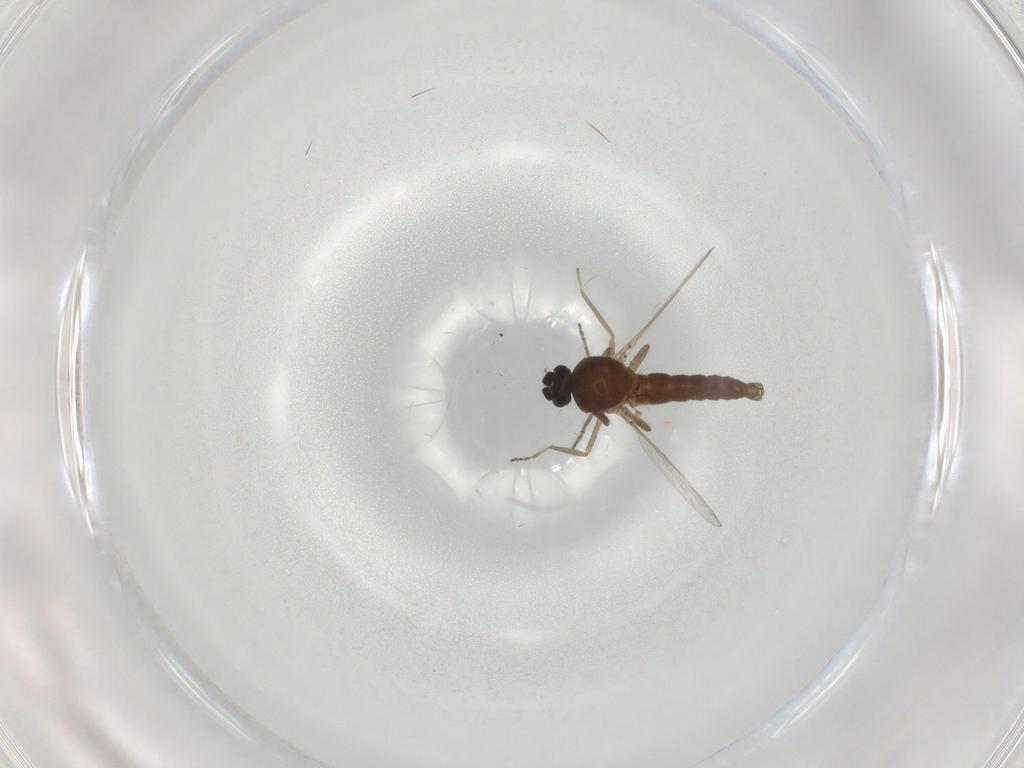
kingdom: Animalia
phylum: Arthropoda
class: Insecta
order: Diptera
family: Ceratopogonidae
